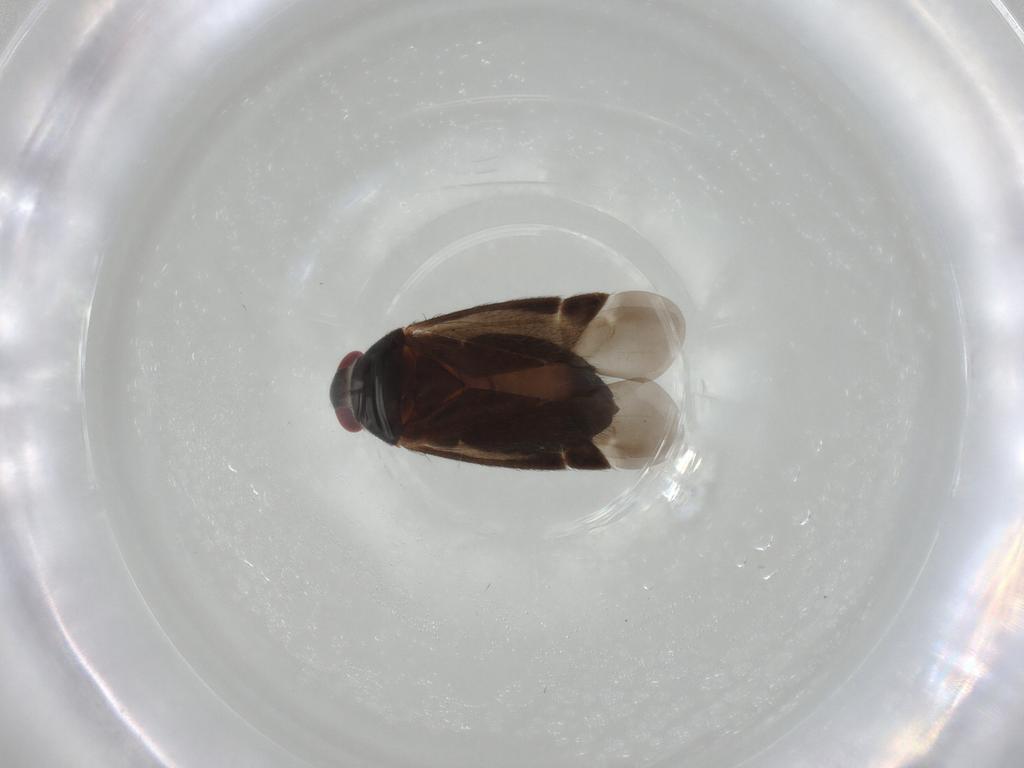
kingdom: Animalia
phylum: Arthropoda
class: Insecta
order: Hemiptera
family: Miridae
